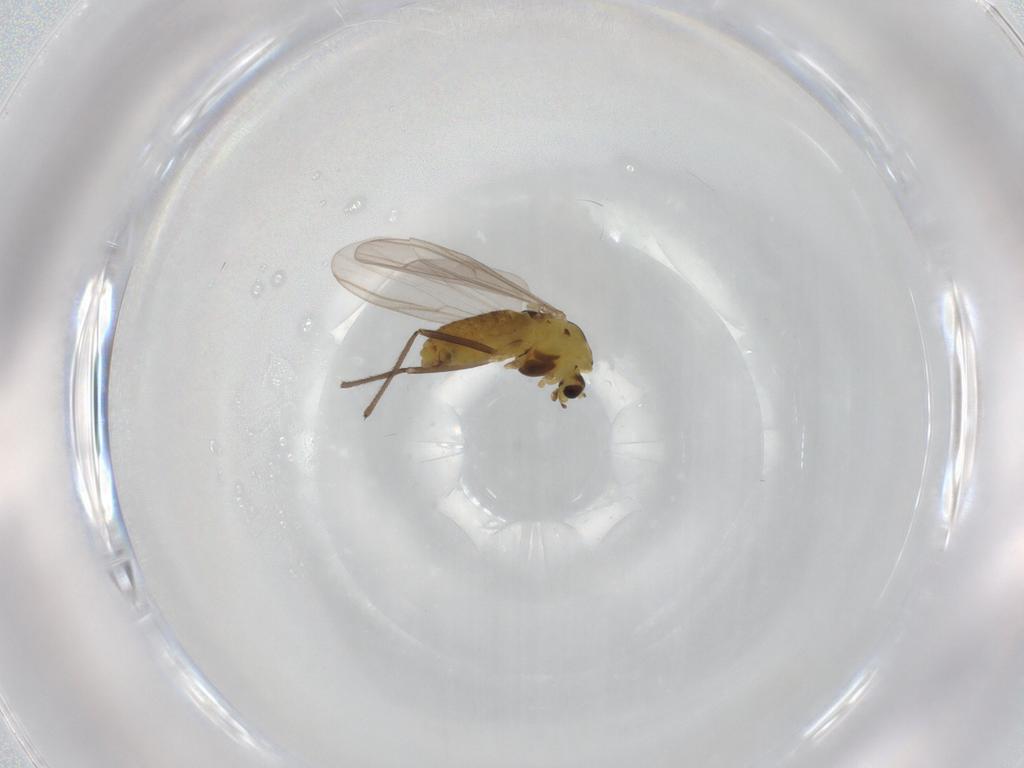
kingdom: Animalia
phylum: Arthropoda
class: Insecta
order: Diptera
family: Chironomidae
